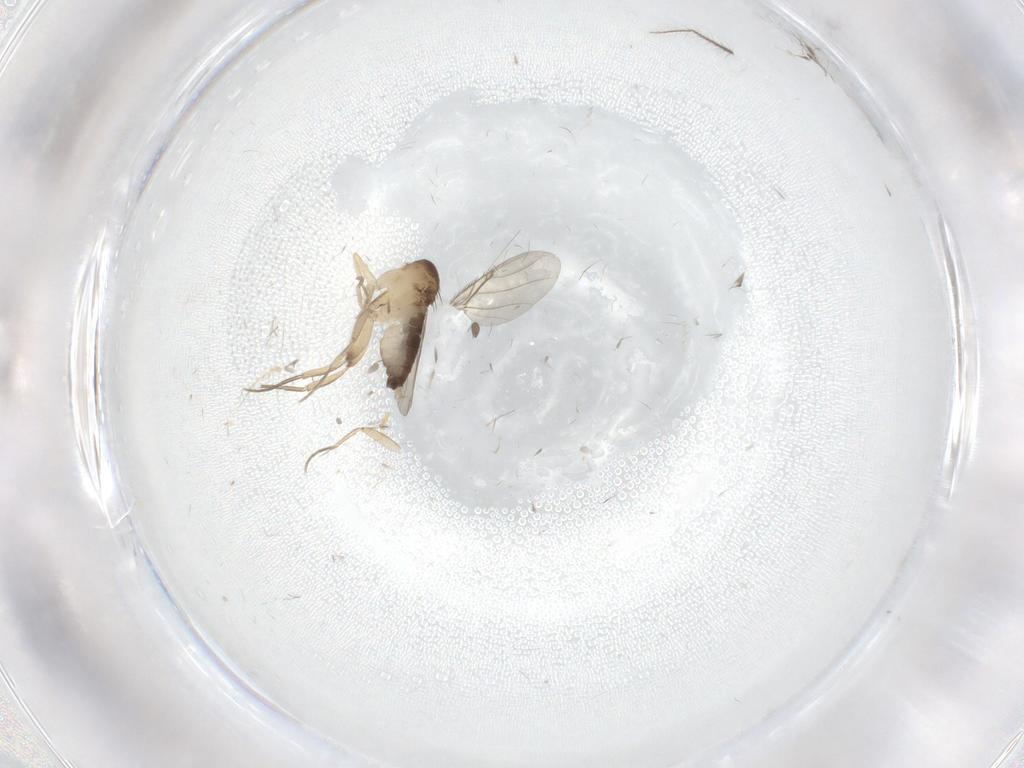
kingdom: Animalia
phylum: Arthropoda
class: Insecta
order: Diptera
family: Phoridae
